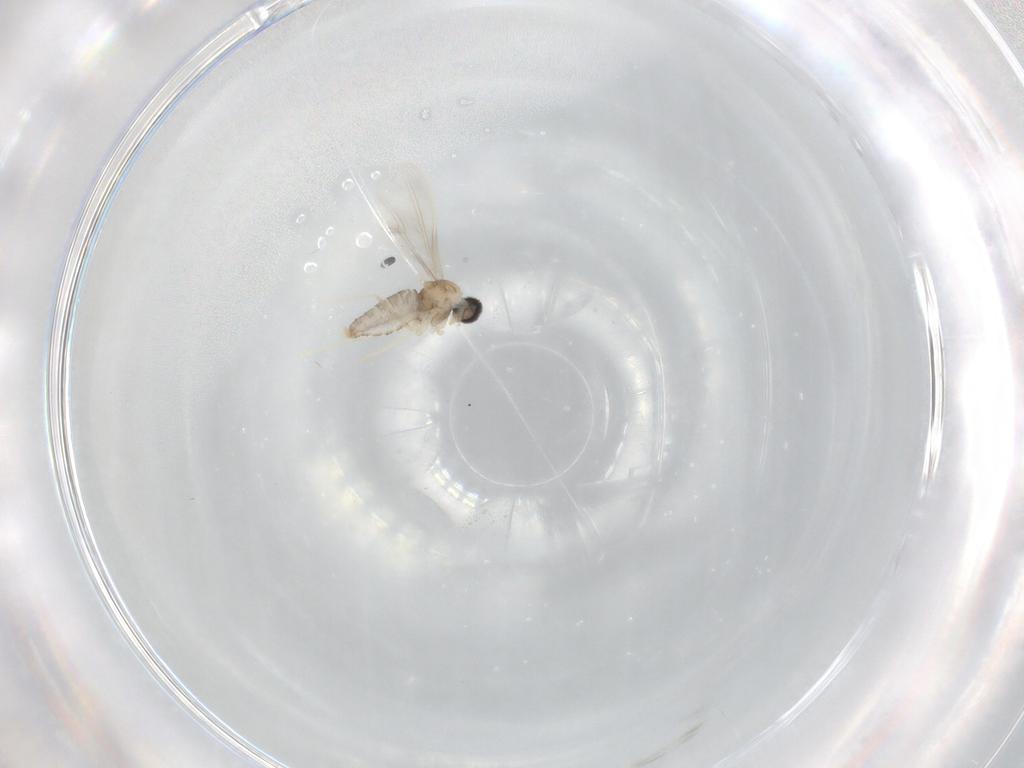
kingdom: Animalia
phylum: Arthropoda
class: Insecta
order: Diptera
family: Cecidomyiidae
